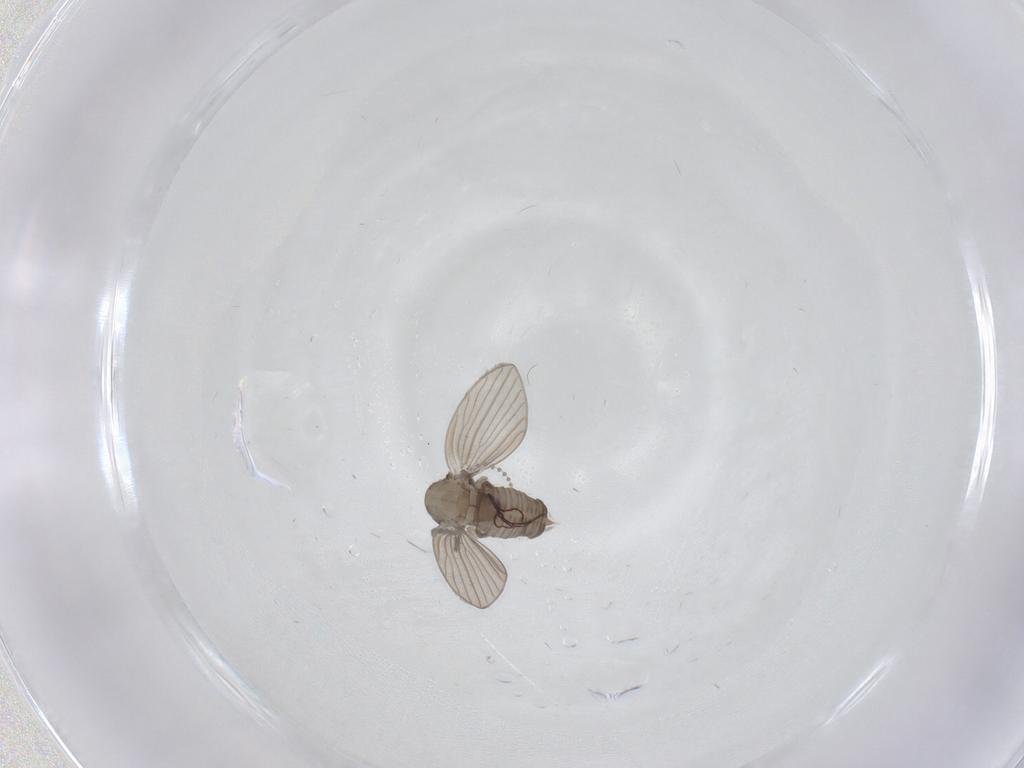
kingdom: Animalia
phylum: Arthropoda
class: Insecta
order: Diptera
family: Psychodidae
